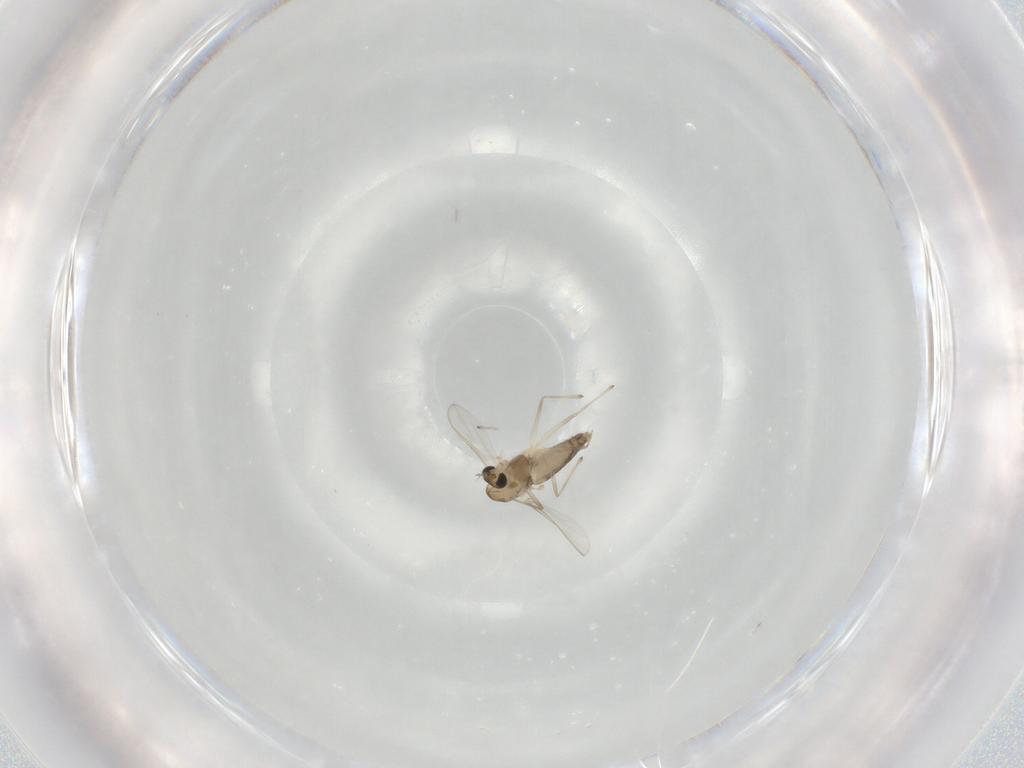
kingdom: Animalia
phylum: Arthropoda
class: Insecta
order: Diptera
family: Chironomidae
